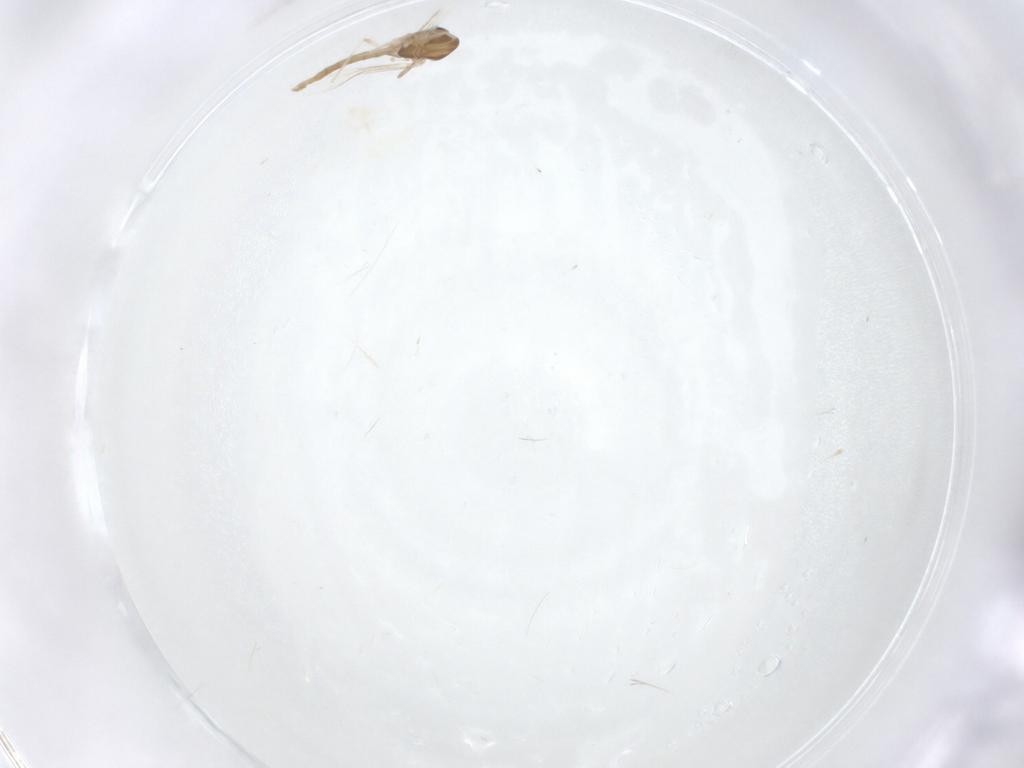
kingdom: Animalia
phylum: Arthropoda
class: Insecta
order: Diptera
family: Chironomidae
